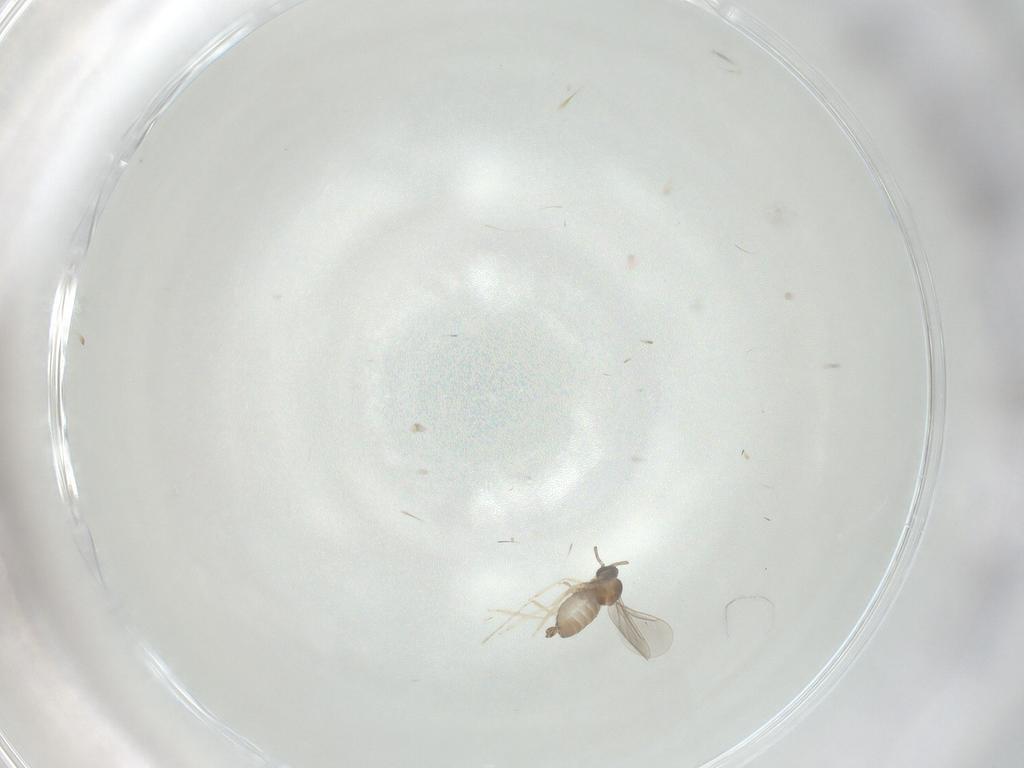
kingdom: Animalia
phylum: Arthropoda
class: Insecta
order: Diptera
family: Cecidomyiidae
